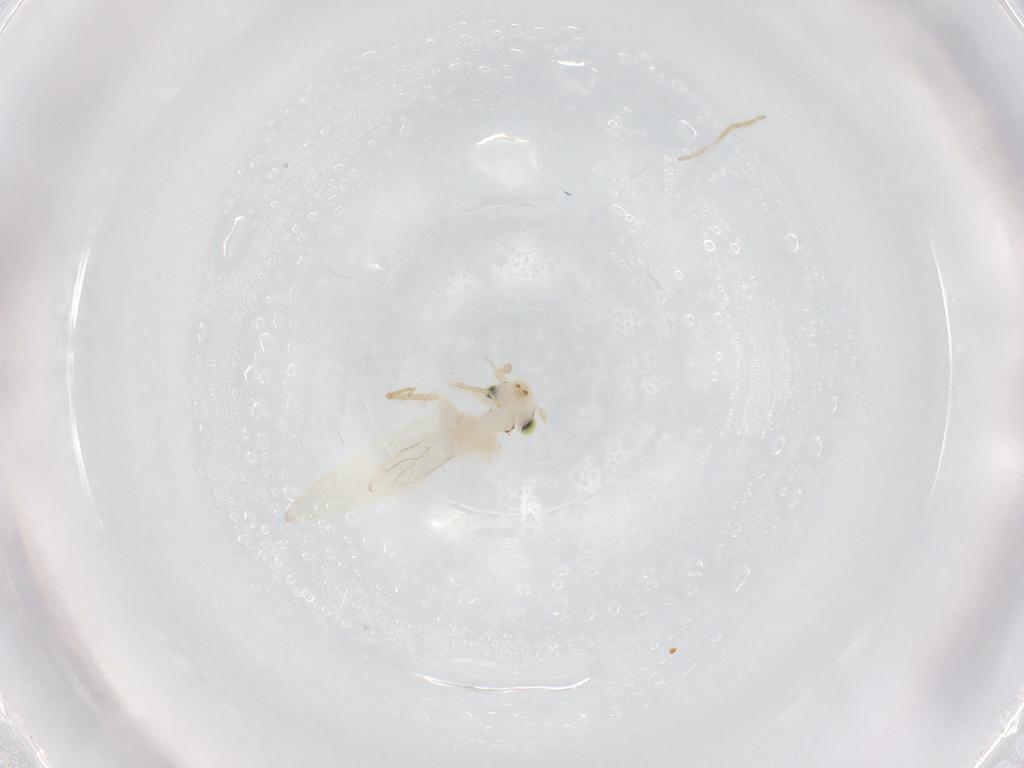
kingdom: Animalia
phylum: Arthropoda
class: Insecta
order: Psocodea
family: Lepidopsocidae
